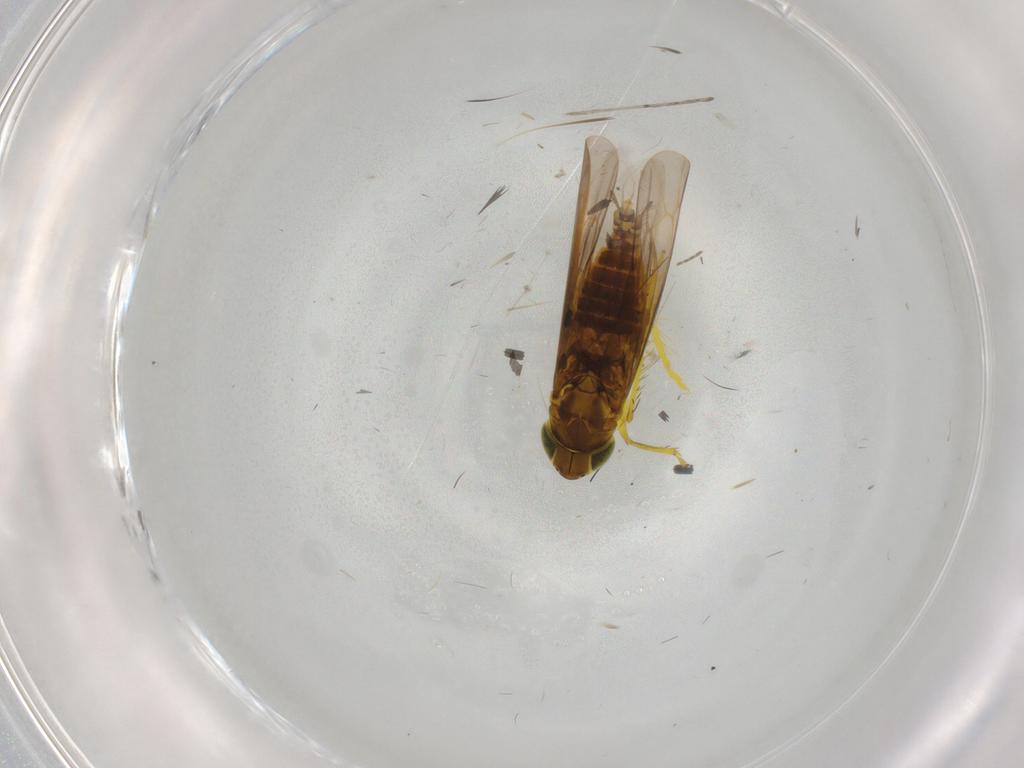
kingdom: Animalia
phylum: Arthropoda
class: Insecta
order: Hemiptera
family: Cicadellidae
